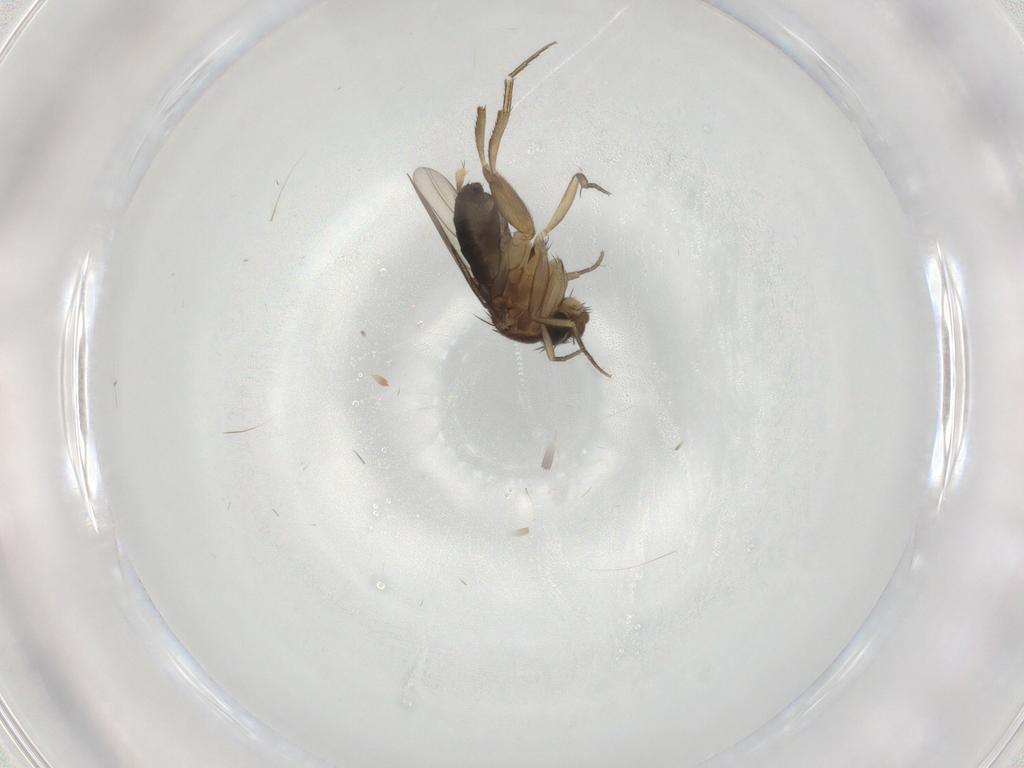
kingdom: Animalia
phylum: Arthropoda
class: Insecta
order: Diptera
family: Phoridae
